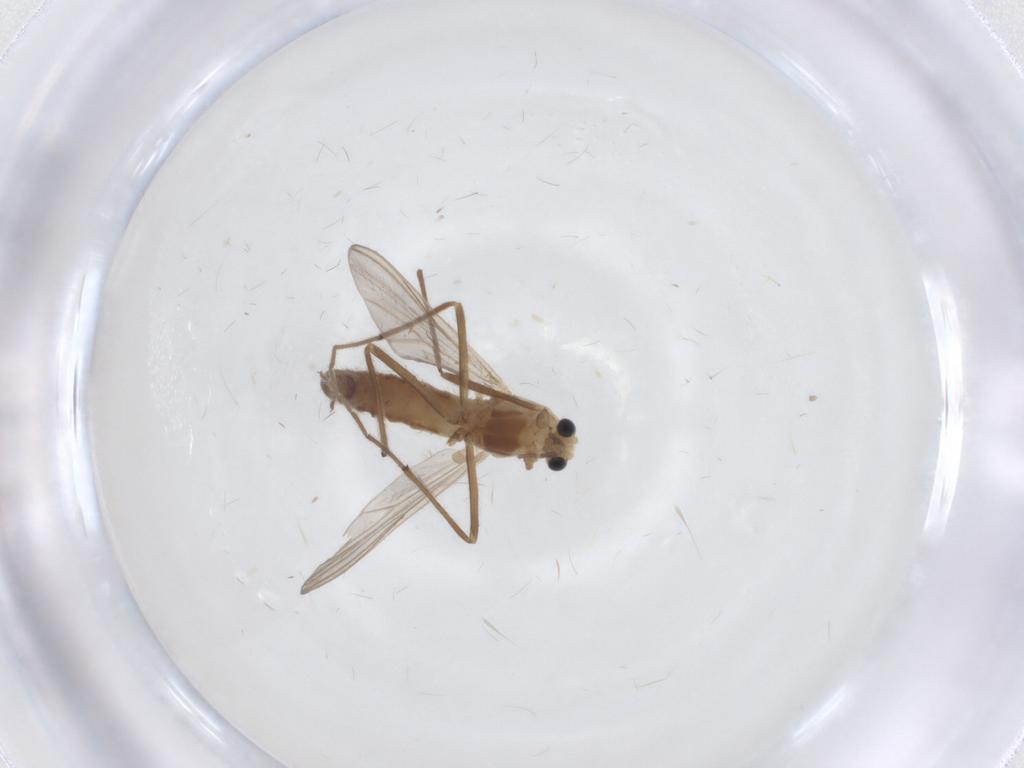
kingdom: Animalia
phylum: Arthropoda
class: Insecta
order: Diptera
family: Chironomidae
